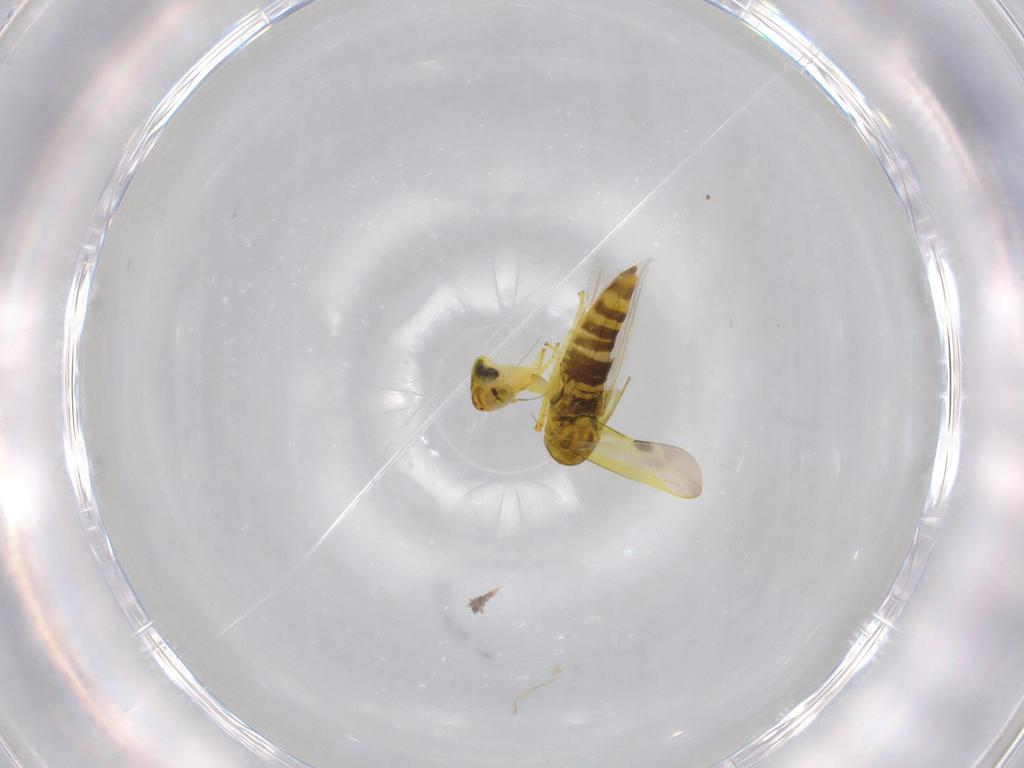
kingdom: Animalia
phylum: Arthropoda
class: Insecta
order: Hemiptera
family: Cicadellidae
